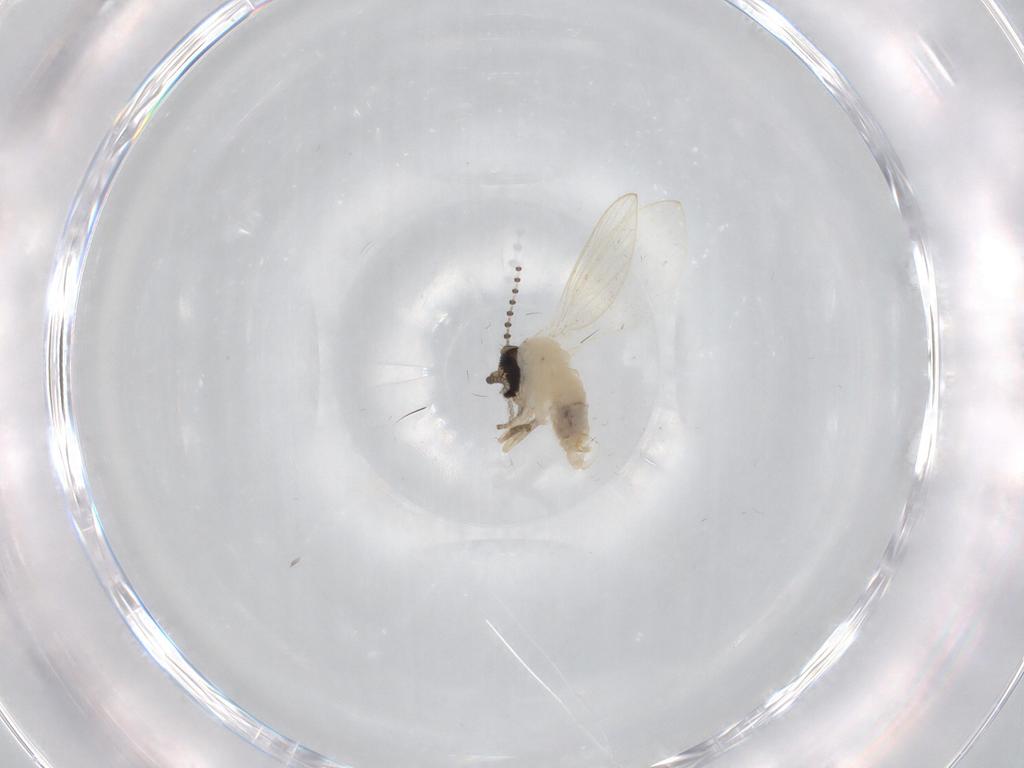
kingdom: Animalia
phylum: Arthropoda
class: Insecta
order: Diptera
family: Psychodidae
